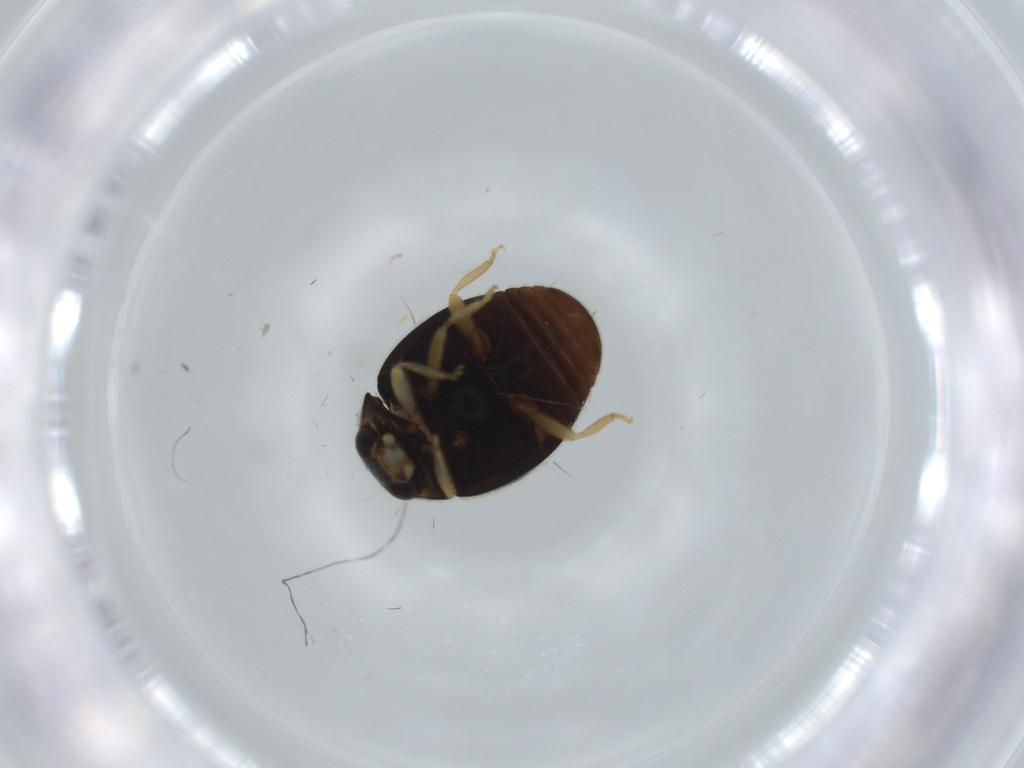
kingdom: Animalia
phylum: Arthropoda
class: Insecta
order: Coleoptera
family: Coccinellidae
